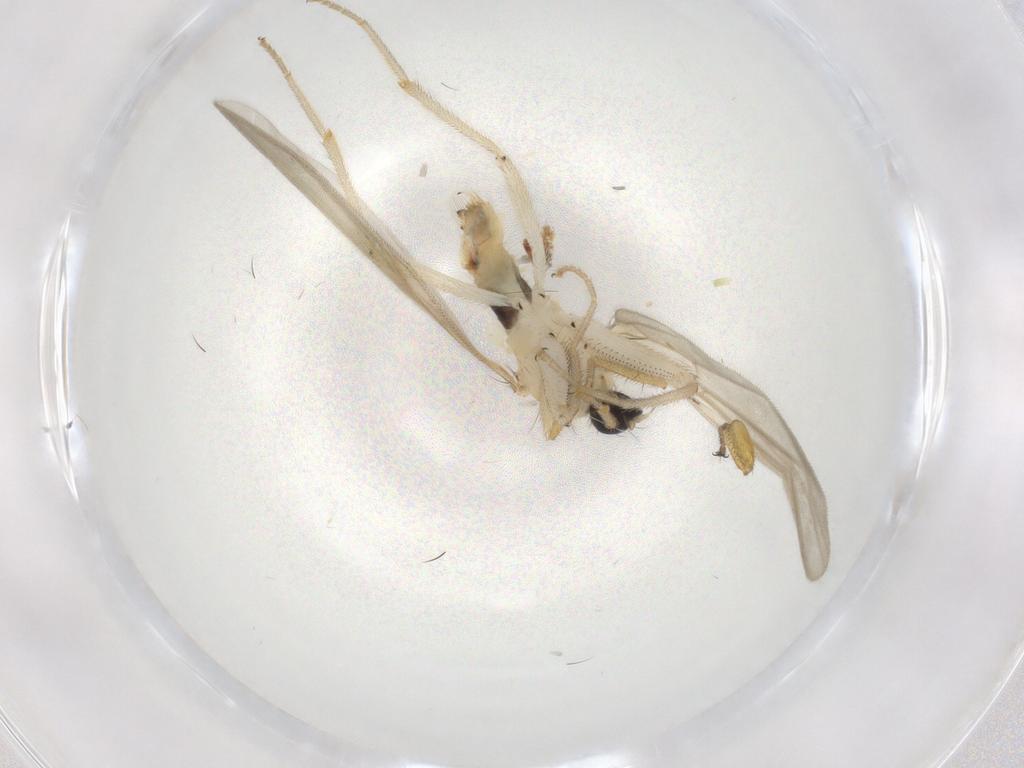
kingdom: Animalia
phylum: Arthropoda
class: Insecta
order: Diptera
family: Hybotidae
